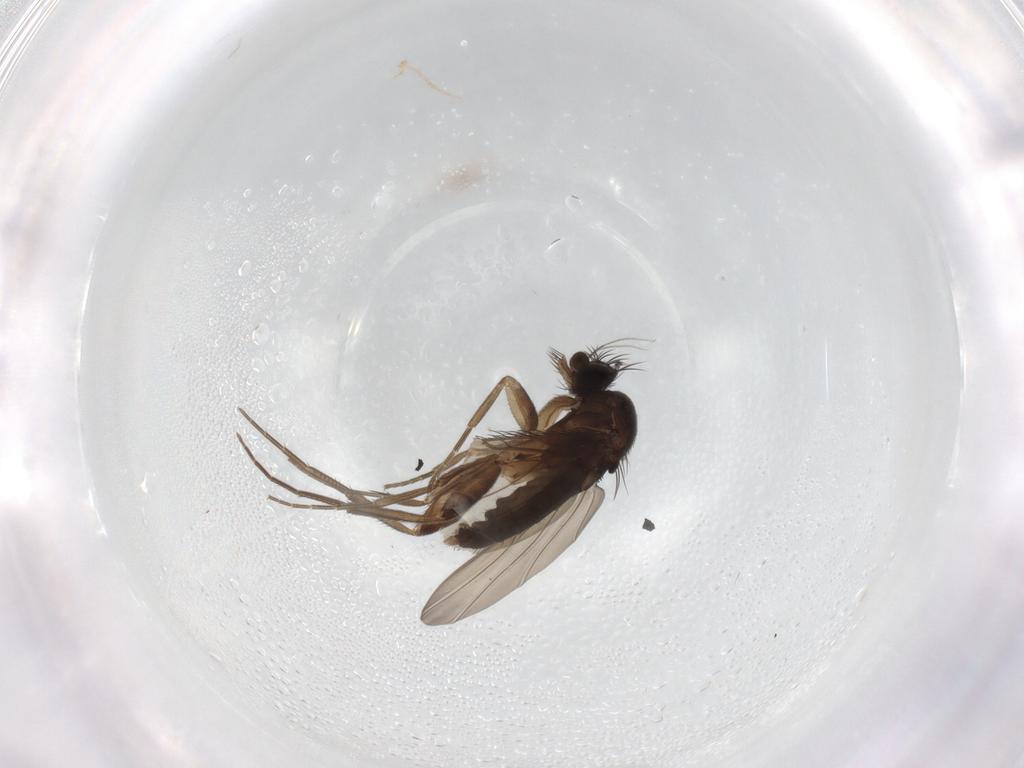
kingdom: Animalia
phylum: Arthropoda
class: Insecta
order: Diptera
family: Phoridae
